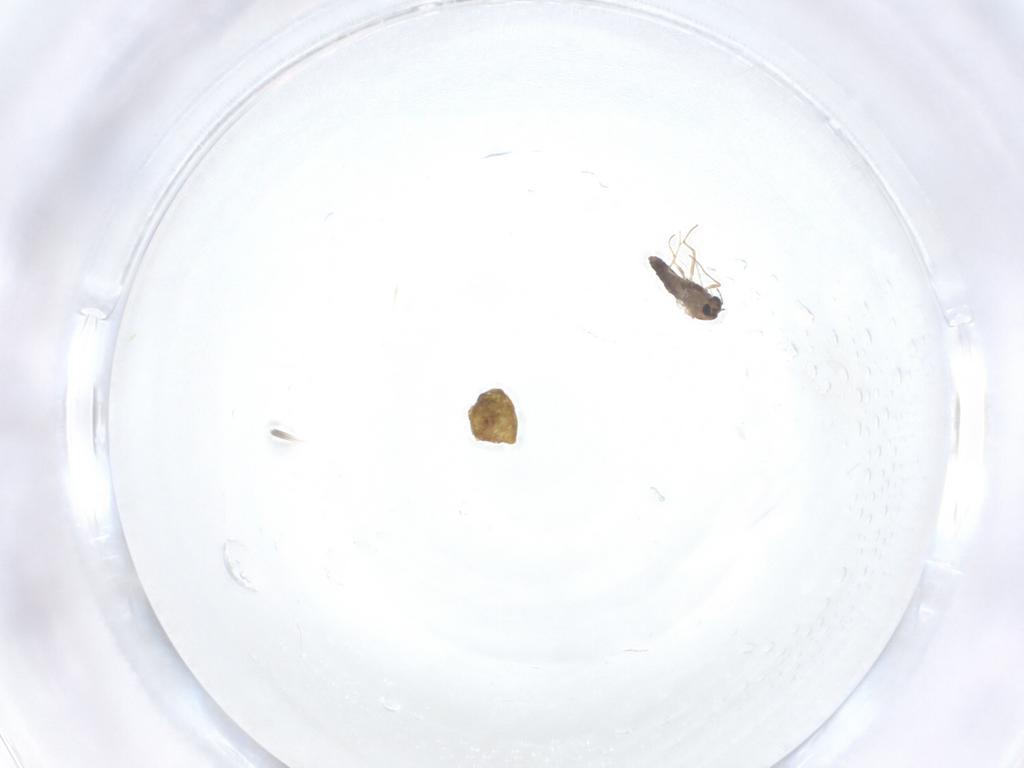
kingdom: Animalia
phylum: Arthropoda
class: Insecta
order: Diptera
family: Chironomidae
